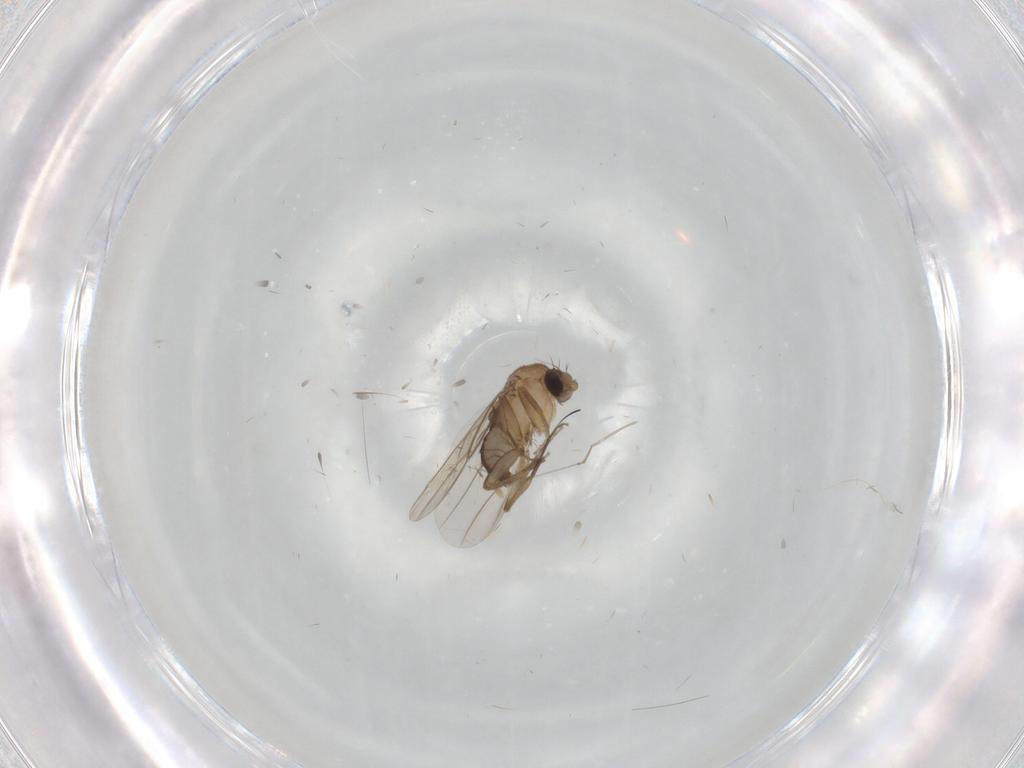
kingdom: Animalia
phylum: Arthropoda
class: Insecta
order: Diptera
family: Cecidomyiidae
